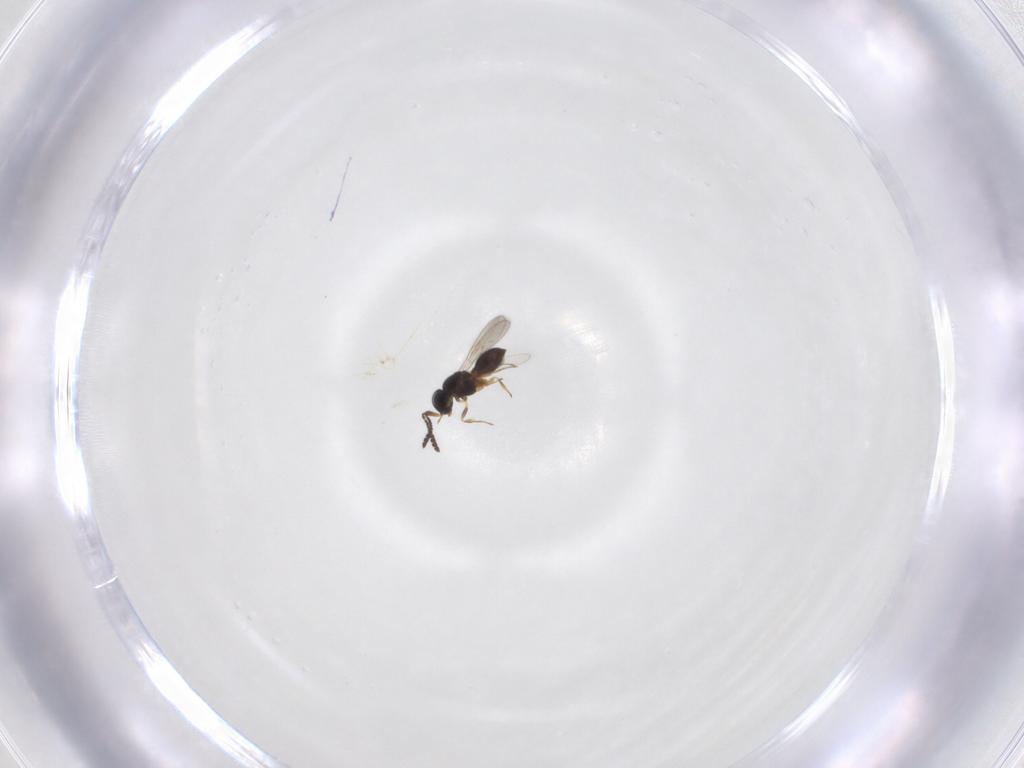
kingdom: Animalia
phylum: Arthropoda
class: Insecta
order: Hymenoptera
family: Scelionidae
